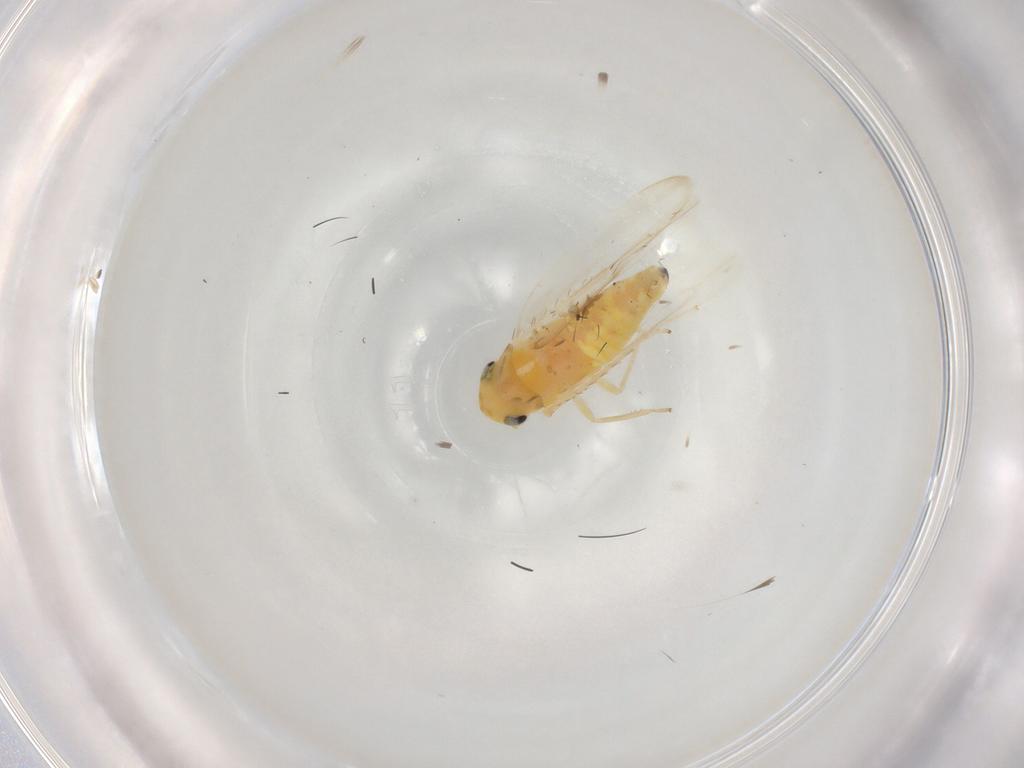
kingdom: Animalia
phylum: Arthropoda
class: Insecta
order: Hemiptera
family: Cicadellidae
